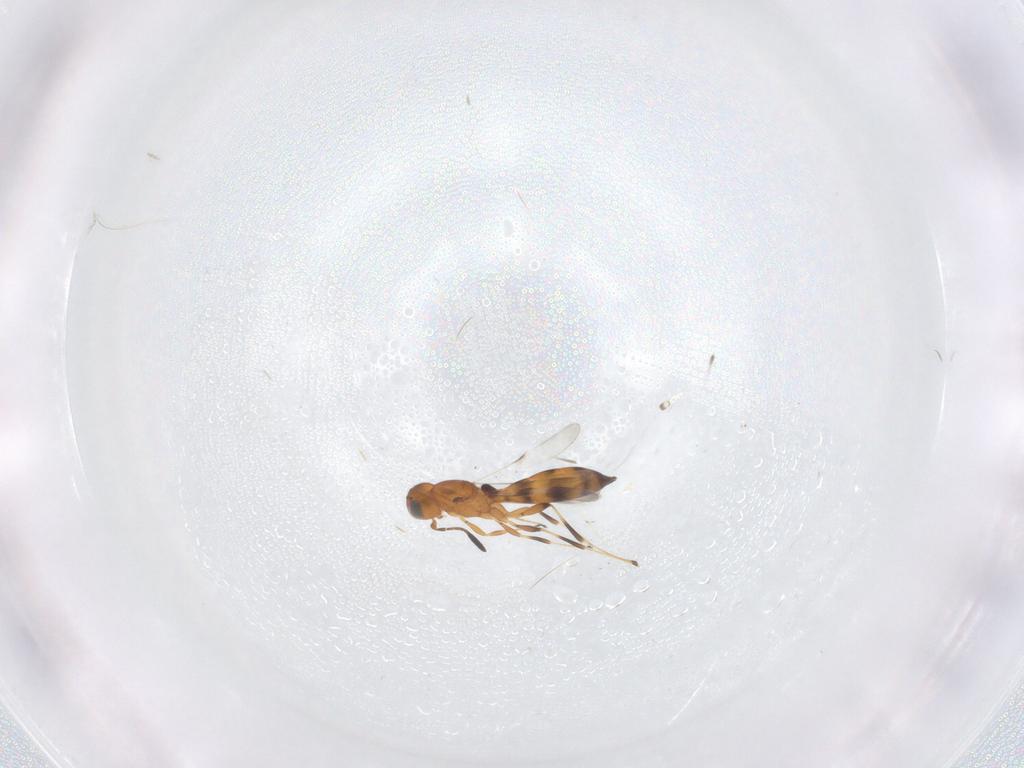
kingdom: Animalia
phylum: Arthropoda
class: Insecta
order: Hymenoptera
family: Scelionidae
